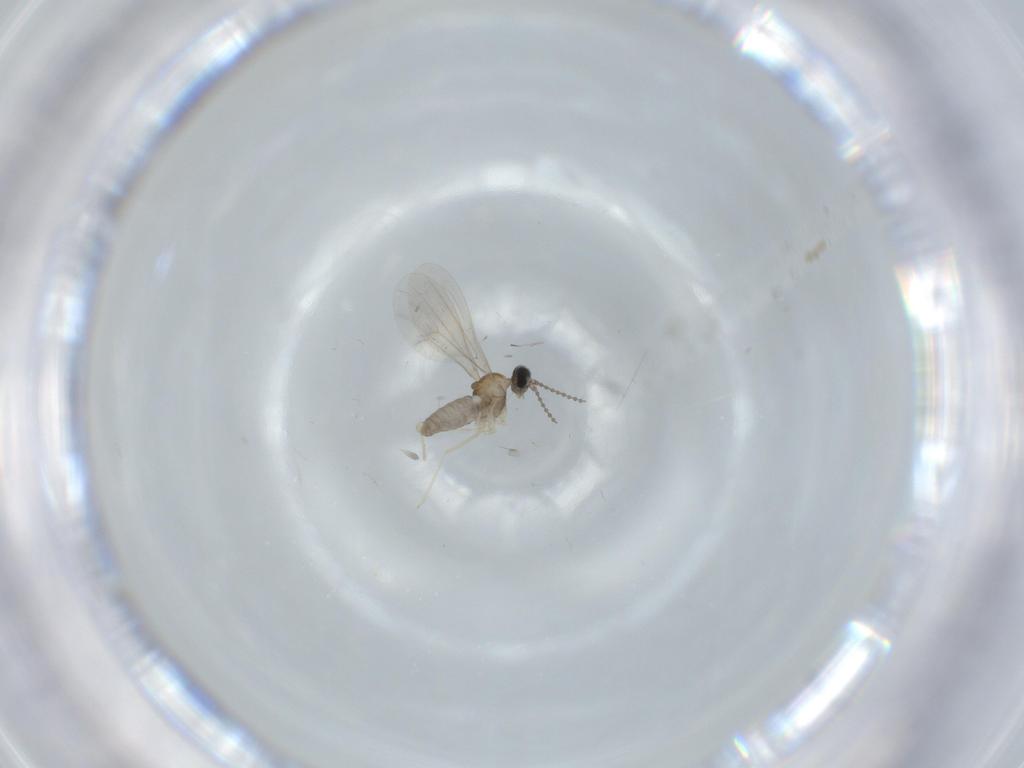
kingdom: Animalia
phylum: Arthropoda
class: Insecta
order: Diptera
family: Cecidomyiidae
